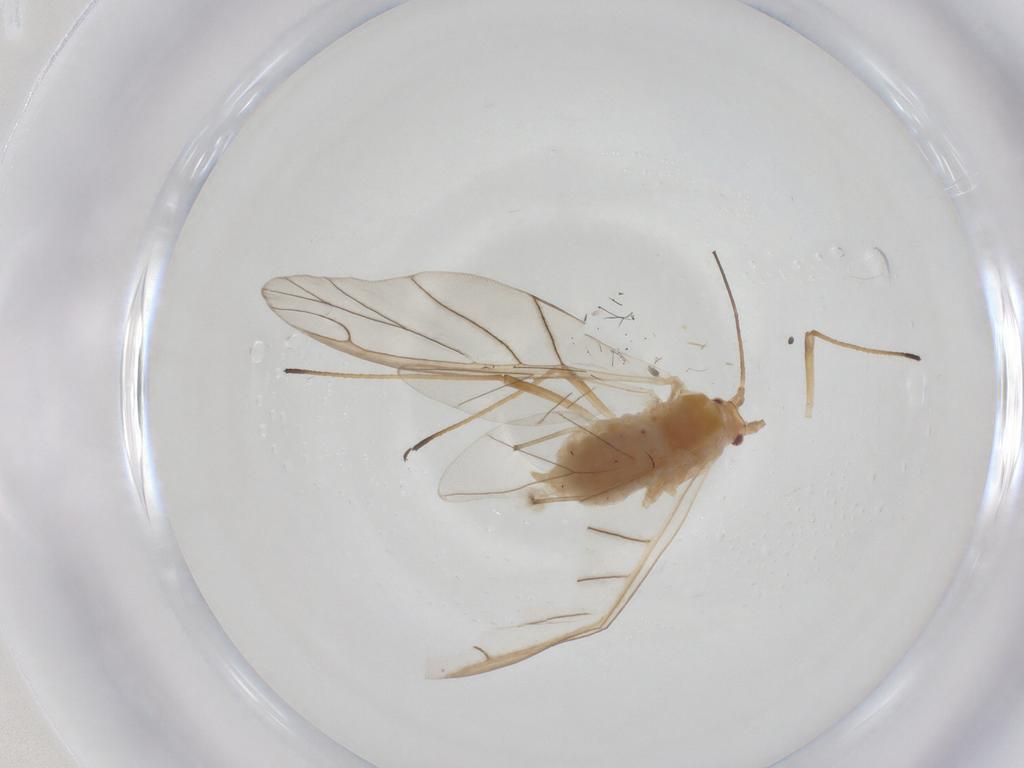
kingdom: Animalia
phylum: Arthropoda
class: Insecta
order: Hemiptera
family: Aphididae
